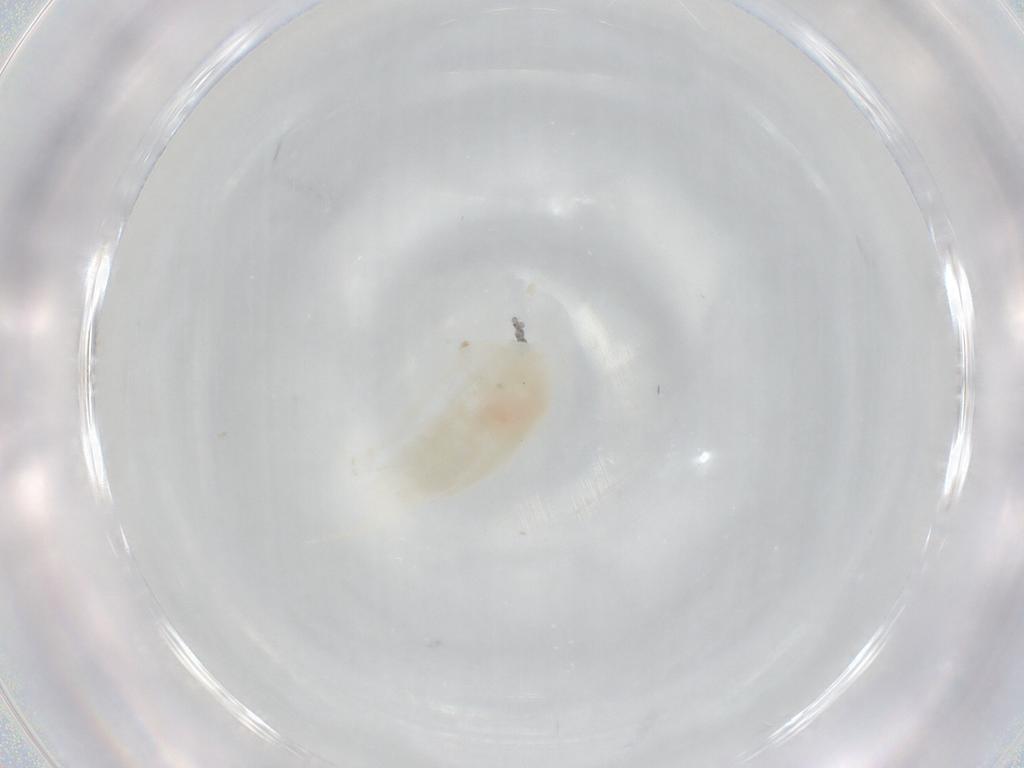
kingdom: Animalia
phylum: Arthropoda
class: Copepoda
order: Calanoida
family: Diaptomidae
